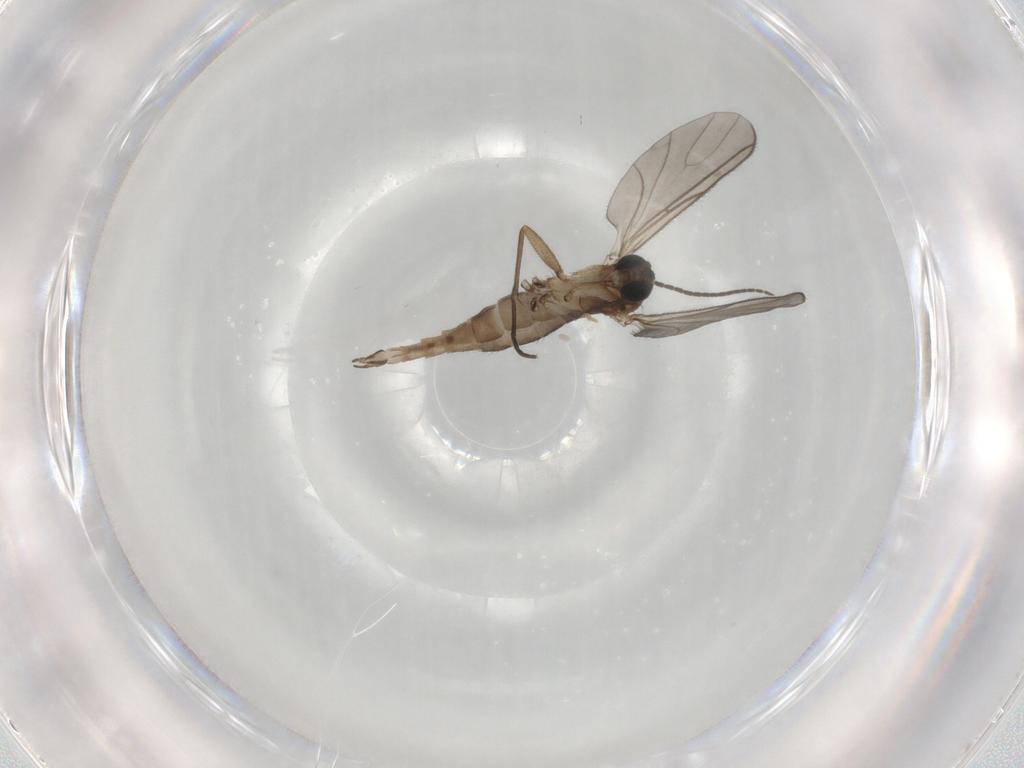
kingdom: Animalia
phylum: Arthropoda
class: Insecta
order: Diptera
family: Sciaridae
